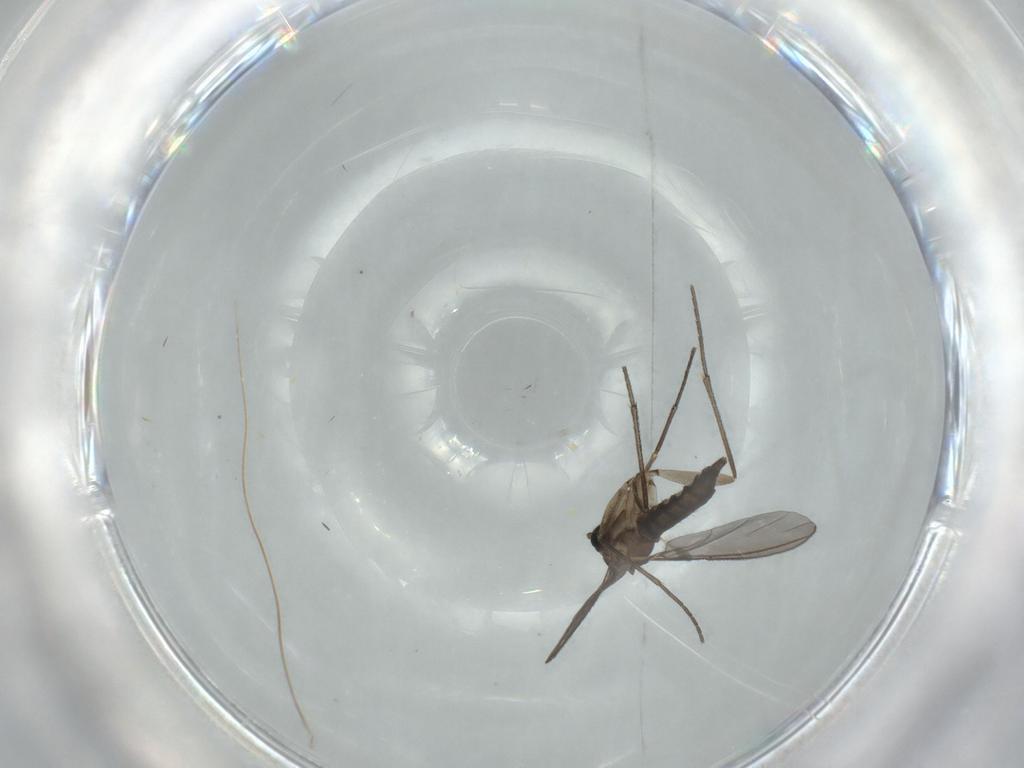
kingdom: Animalia
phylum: Arthropoda
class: Insecta
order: Diptera
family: Sciaridae
